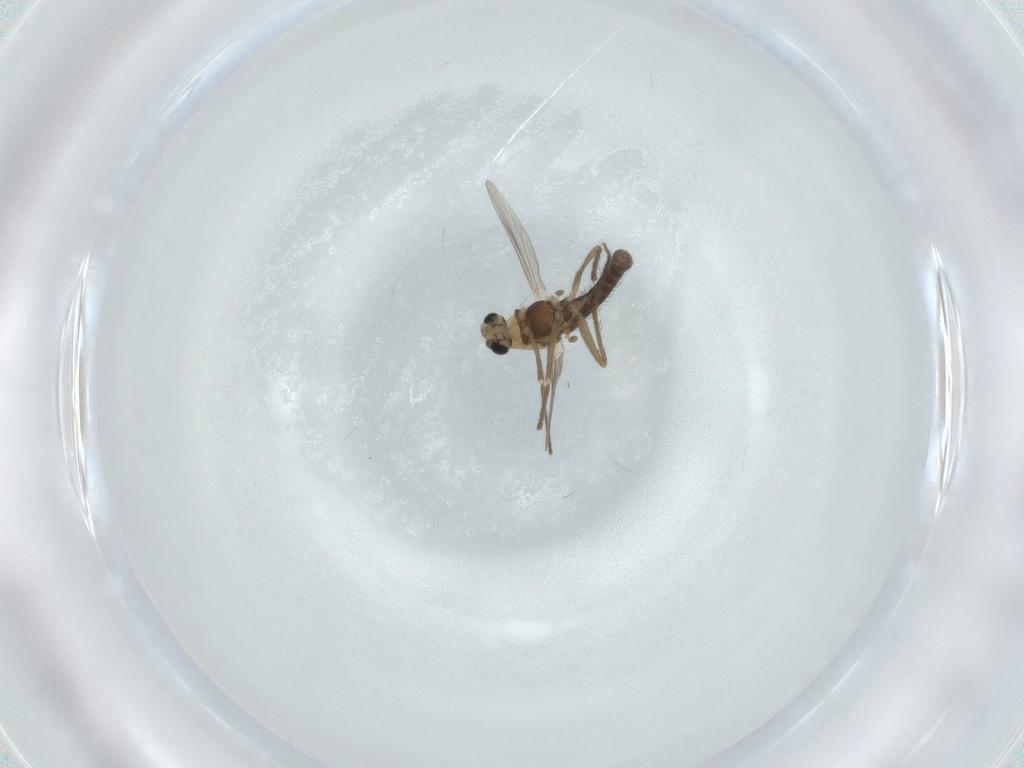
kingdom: Animalia
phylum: Arthropoda
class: Insecta
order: Diptera
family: Chironomidae
